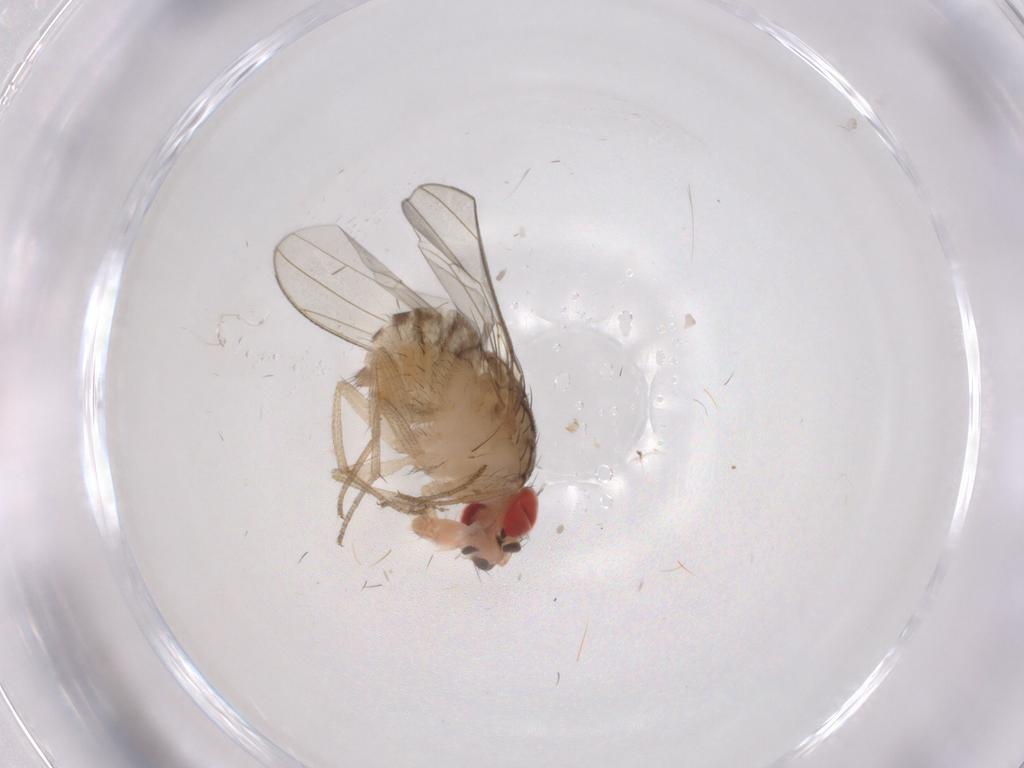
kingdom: Animalia
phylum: Arthropoda
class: Insecta
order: Diptera
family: Drosophilidae
